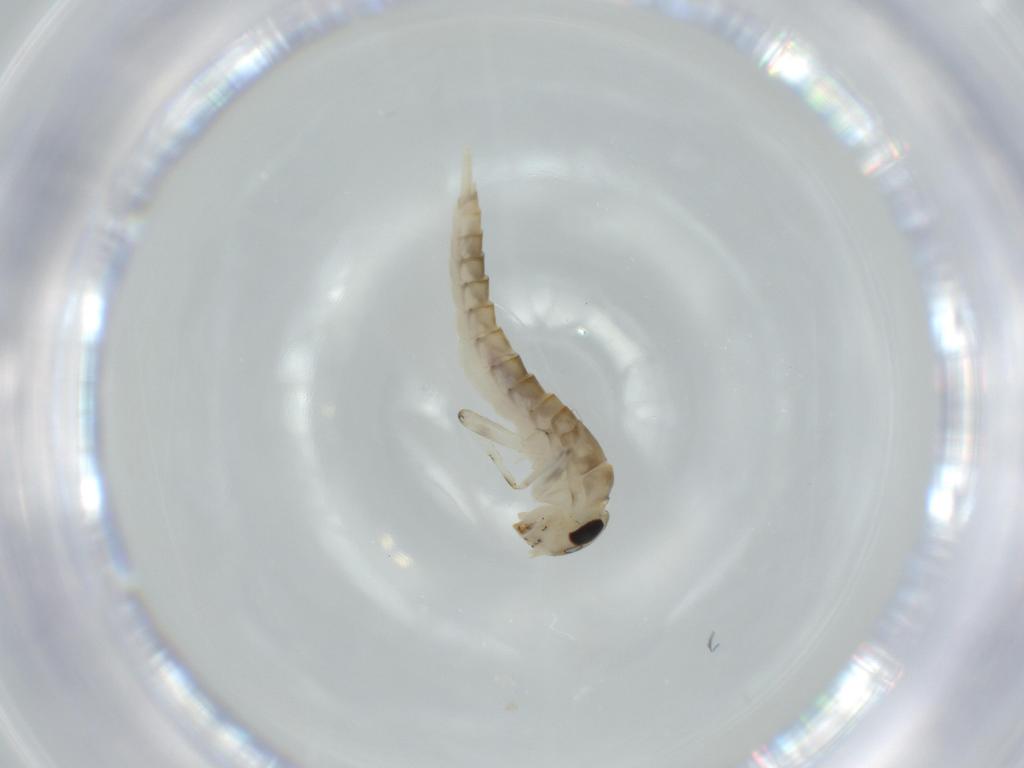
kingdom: Animalia
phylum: Arthropoda
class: Insecta
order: Ephemeroptera
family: Baetidae
